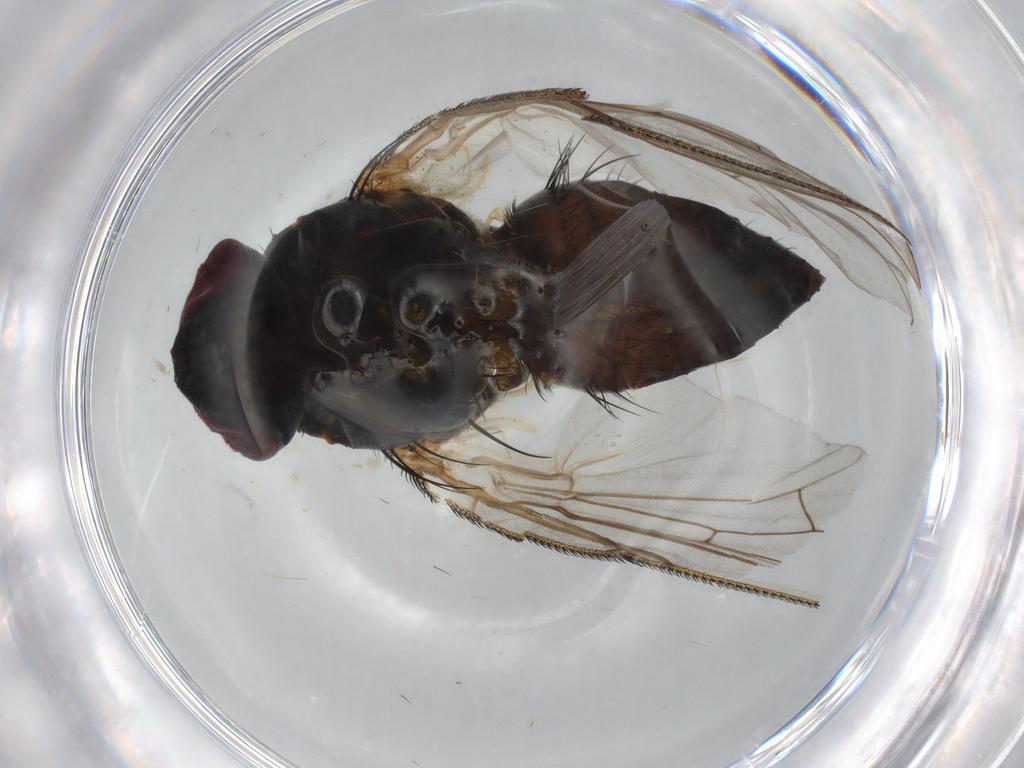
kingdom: Animalia
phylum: Arthropoda
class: Insecta
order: Diptera
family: Muscidae
